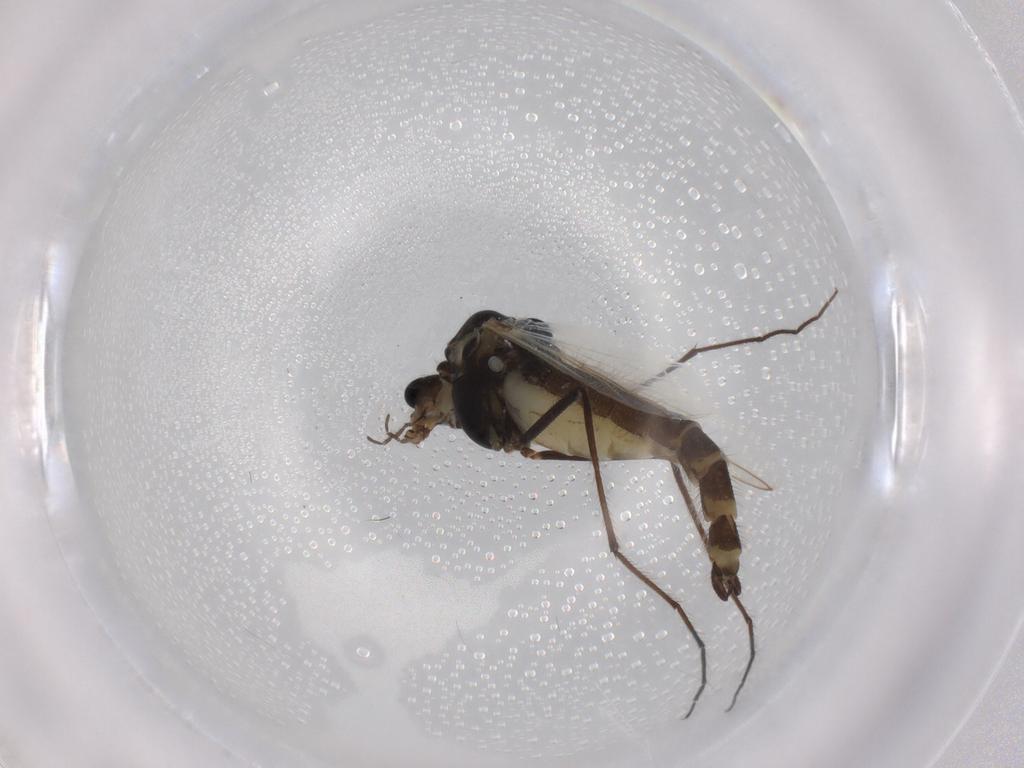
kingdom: Animalia
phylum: Arthropoda
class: Insecta
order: Diptera
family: Chironomidae
